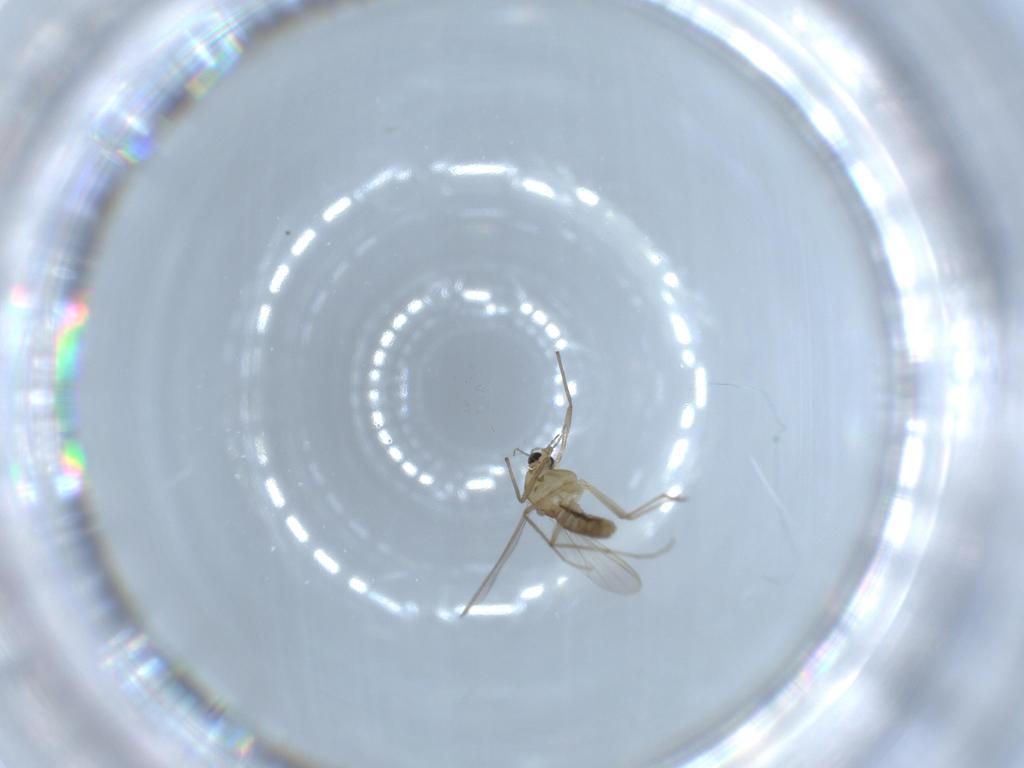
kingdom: Animalia
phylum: Arthropoda
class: Insecta
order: Diptera
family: Chironomidae
